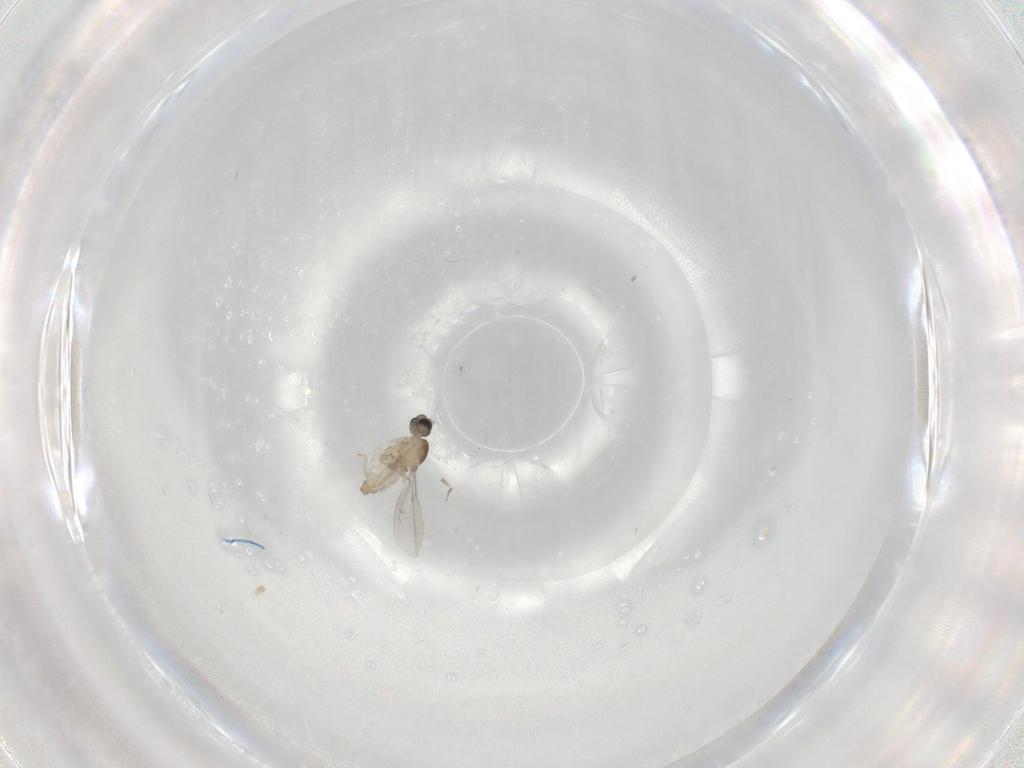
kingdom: Animalia
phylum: Arthropoda
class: Insecta
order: Diptera
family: Cecidomyiidae
